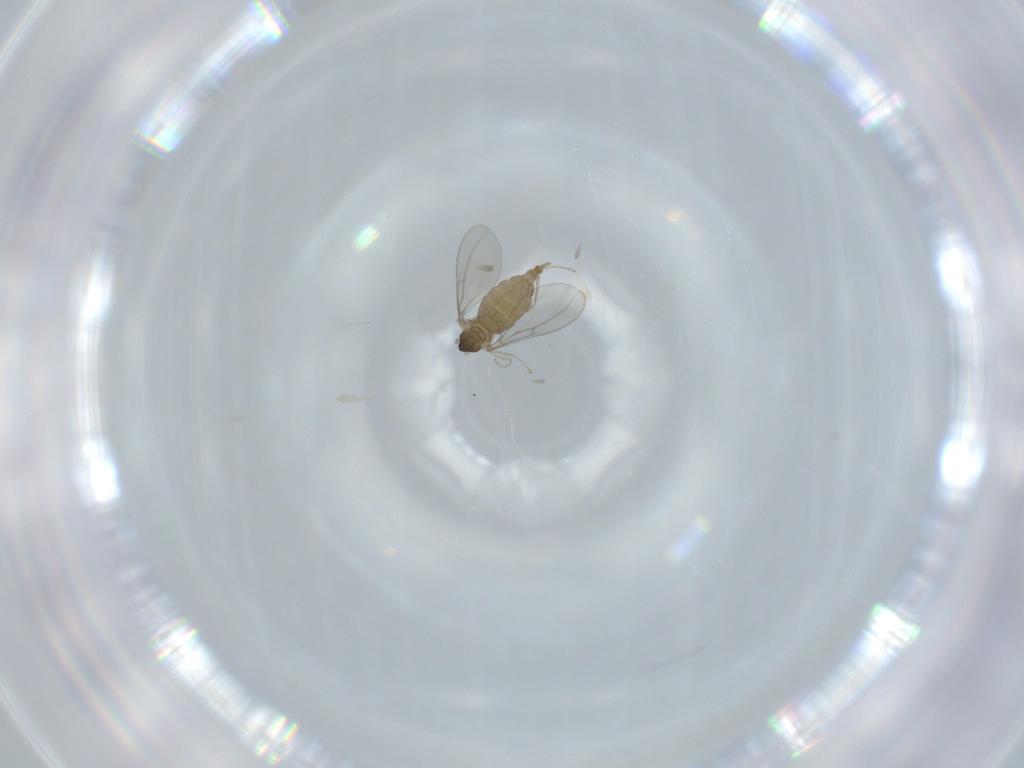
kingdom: Animalia
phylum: Arthropoda
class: Insecta
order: Diptera
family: Cecidomyiidae
